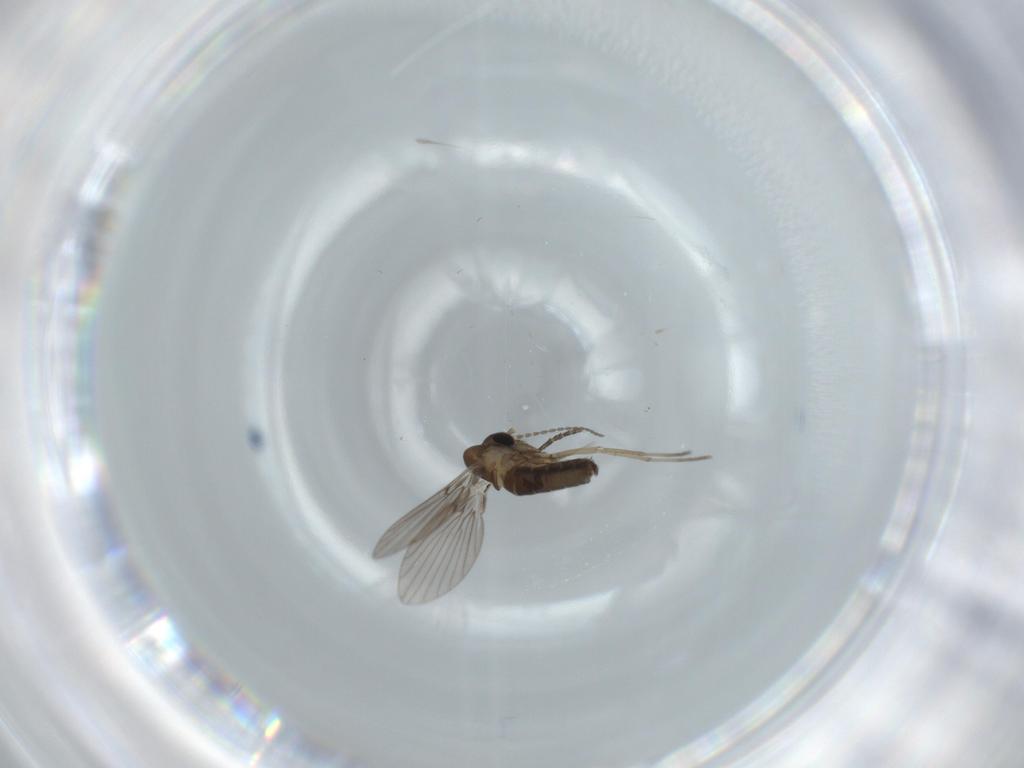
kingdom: Animalia
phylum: Arthropoda
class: Insecta
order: Diptera
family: Psychodidae
